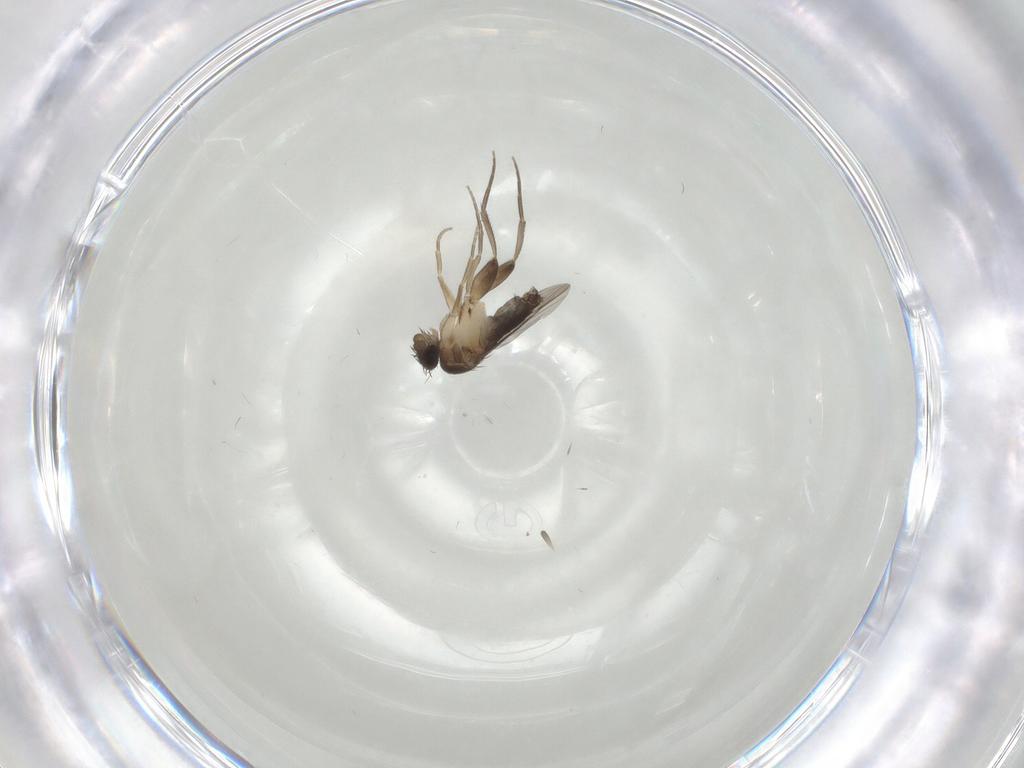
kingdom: Animalia
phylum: Arthropoda
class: Insecta
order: Diptera
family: Phoridae
